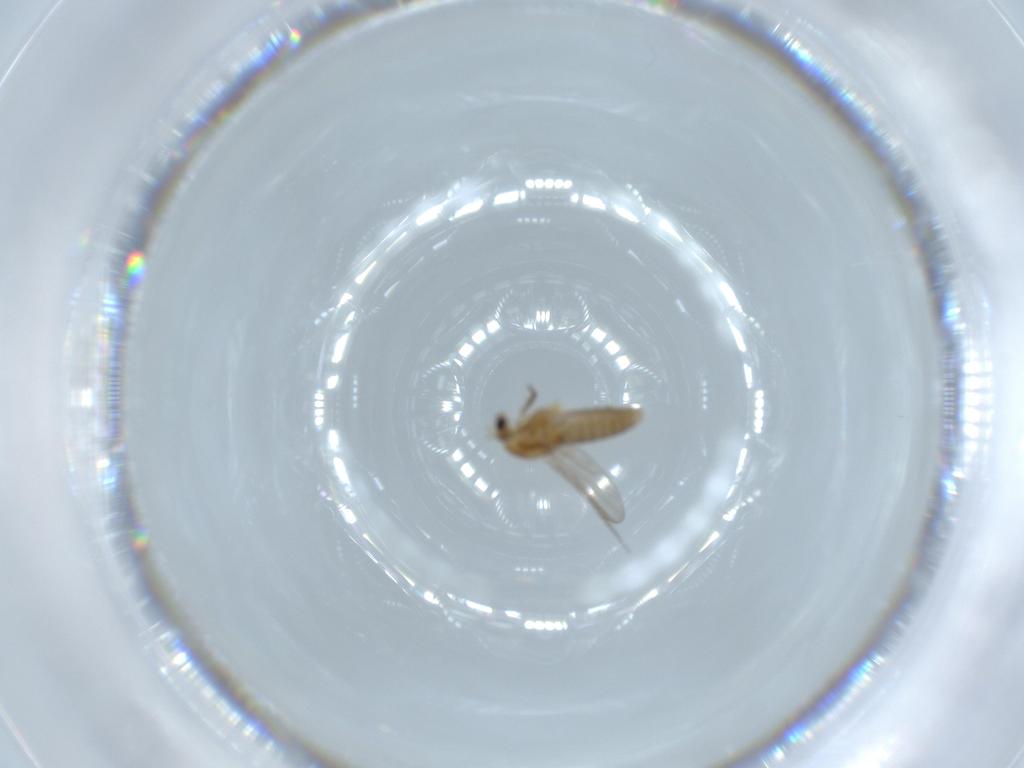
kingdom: Animalia
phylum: Arthropoda
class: Insecta
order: Diptera
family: Chironomidae
